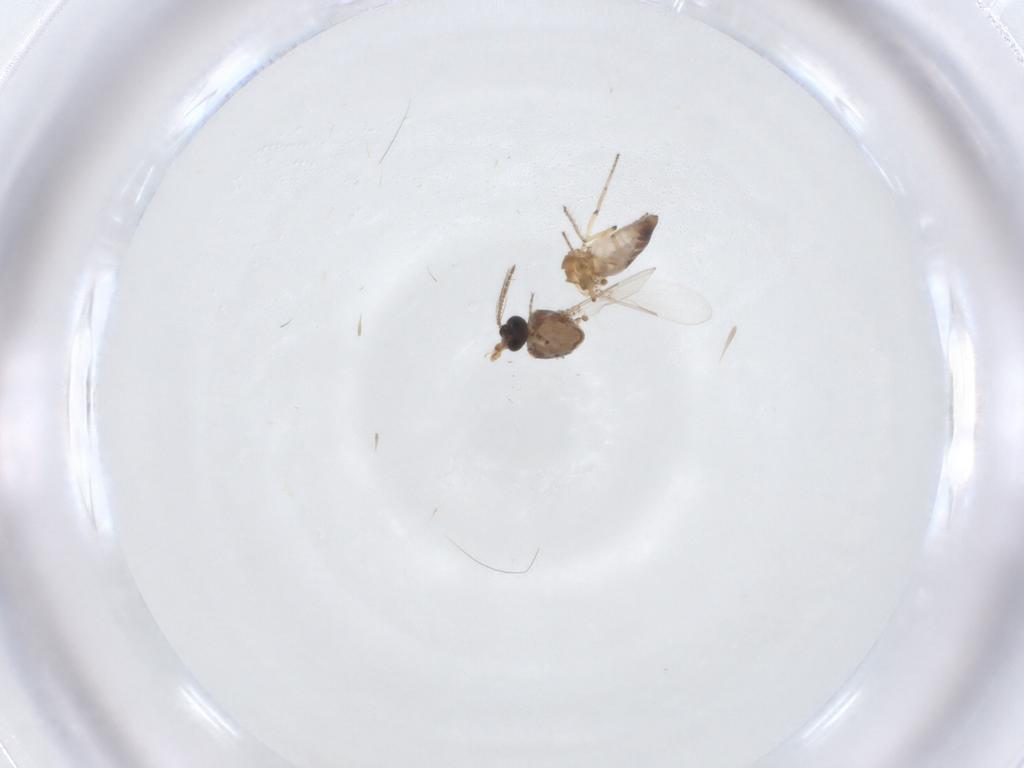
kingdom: Animalia
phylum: Arthropoda
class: Insecta
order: Diptera
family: Ceratopogonidae
